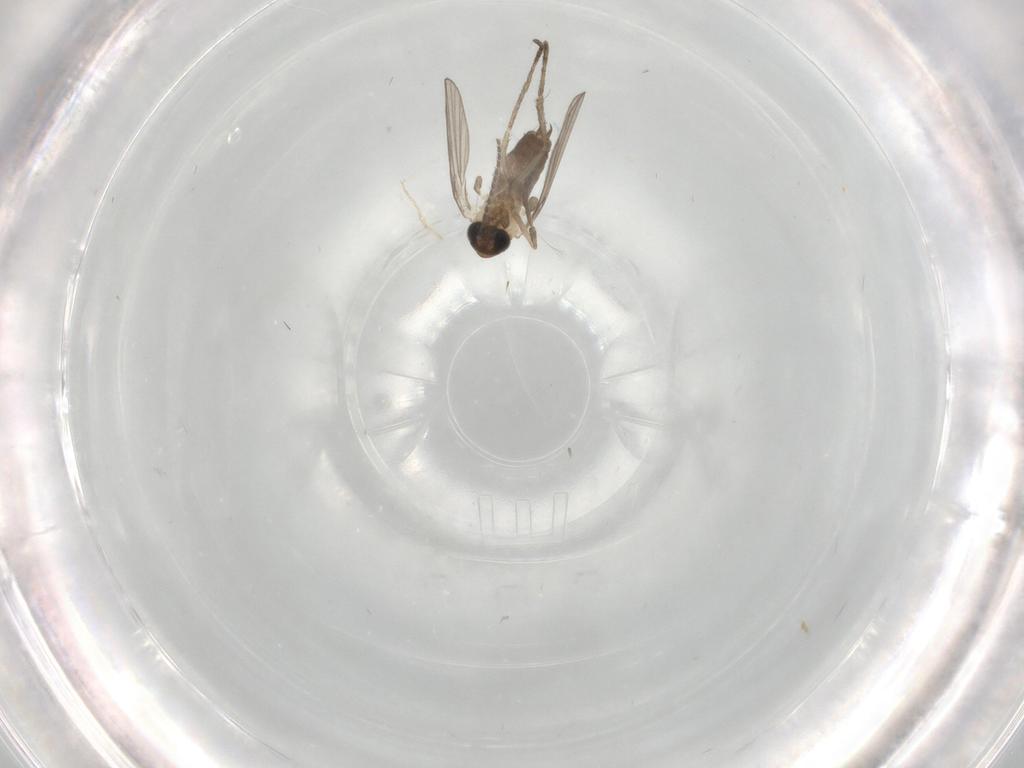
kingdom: Animalia
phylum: Arthropoda
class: Insecta
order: Diptera
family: Psychodidae
